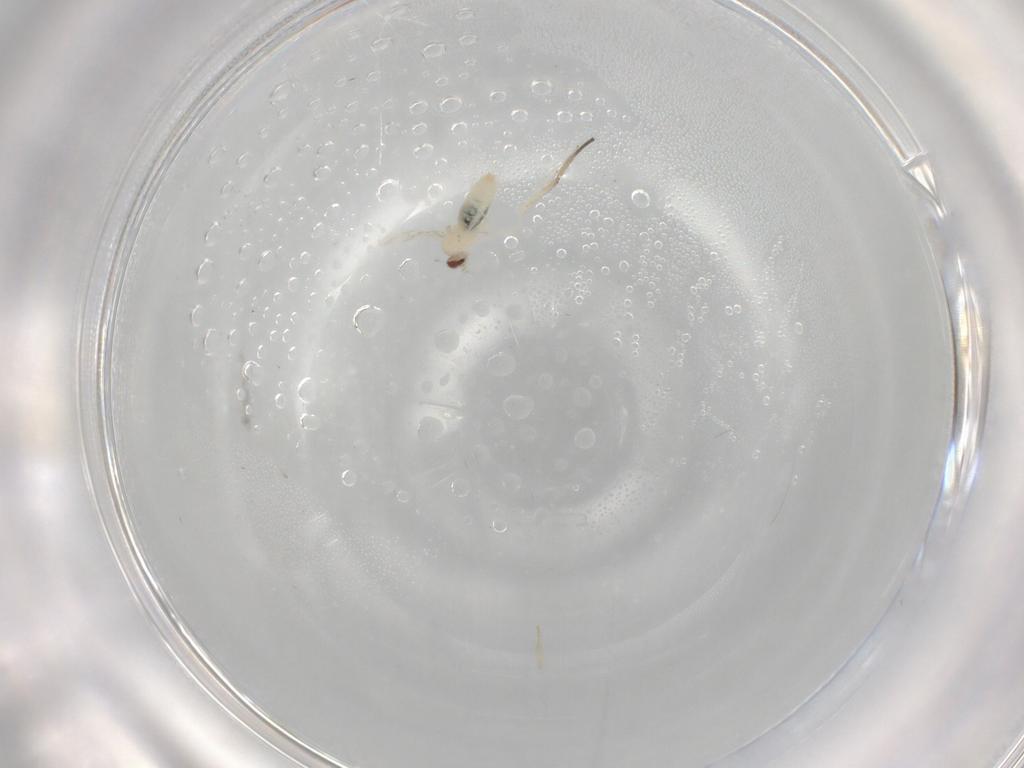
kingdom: Animalia
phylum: Arthropoda
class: Insecta
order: Diptera
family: Cecidomyiidae
